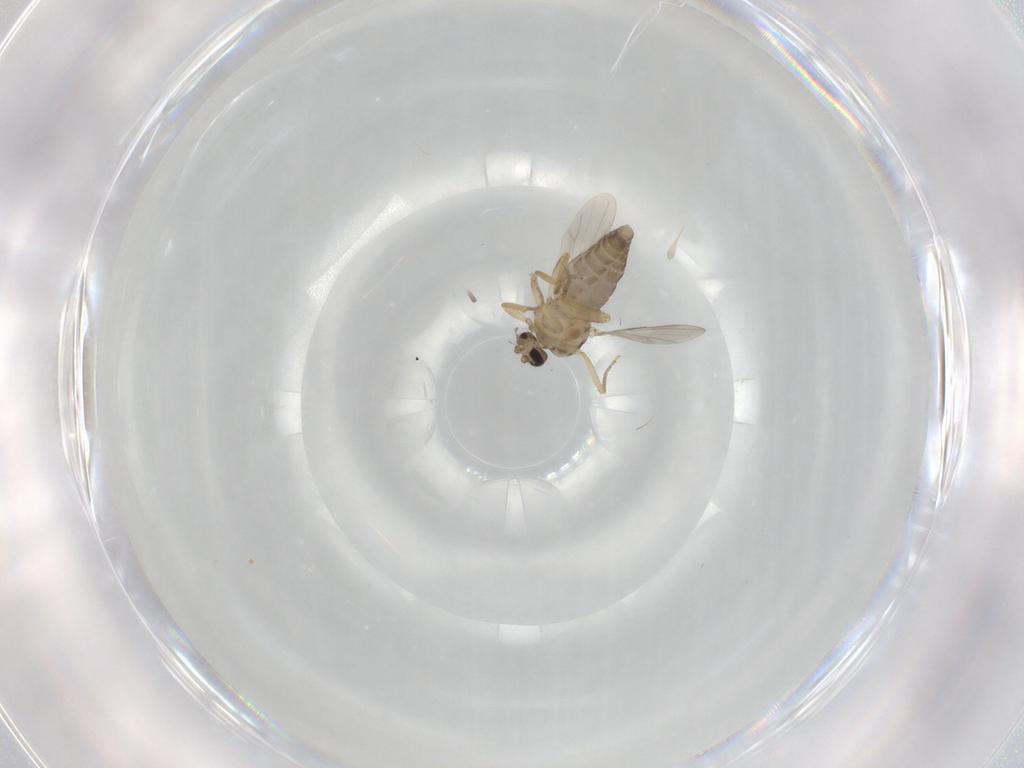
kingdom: Animalia
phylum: Arthropoda
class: Insecta
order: Diptera
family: Ceratopogonidae
